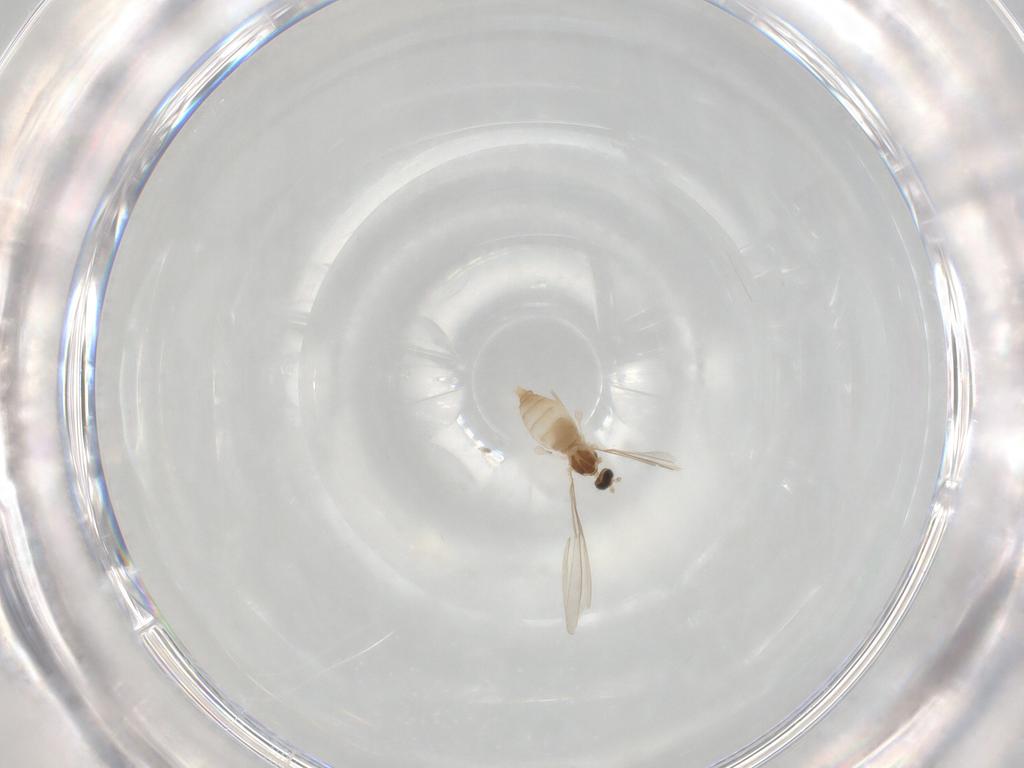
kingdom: Animalia
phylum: Arthropoda
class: Insecta
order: Diptera
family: Cecidomyiidae
